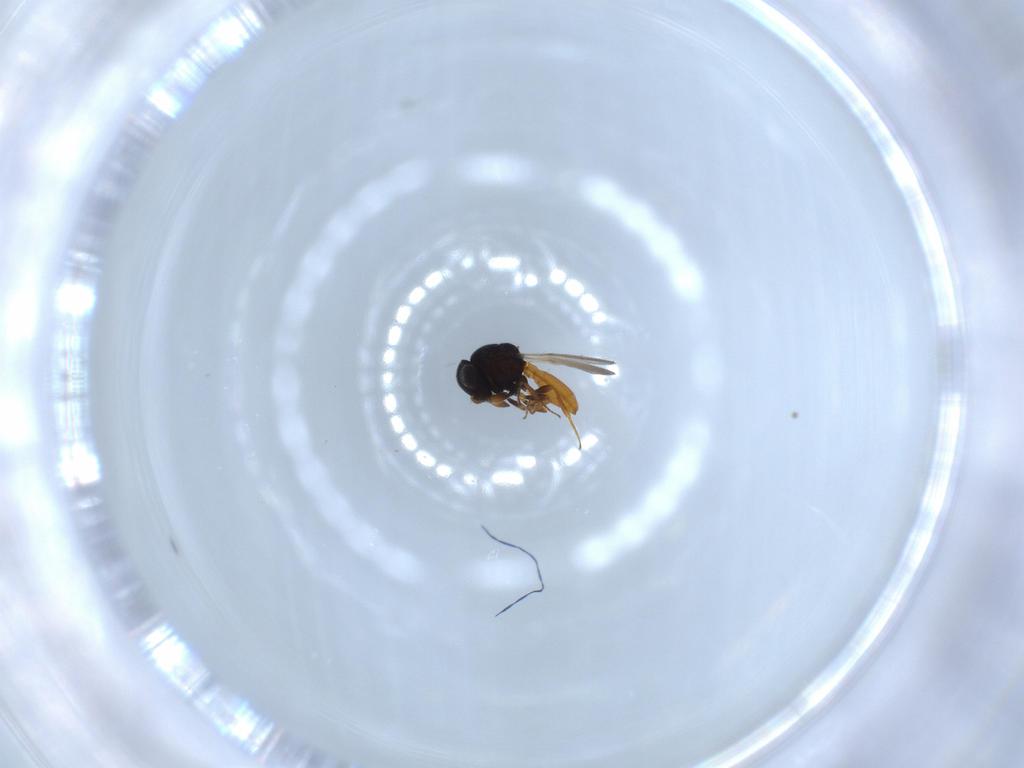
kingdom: Animalia
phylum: Arthropoda
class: Insecta
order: Hymenoptera
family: Scelionidae
